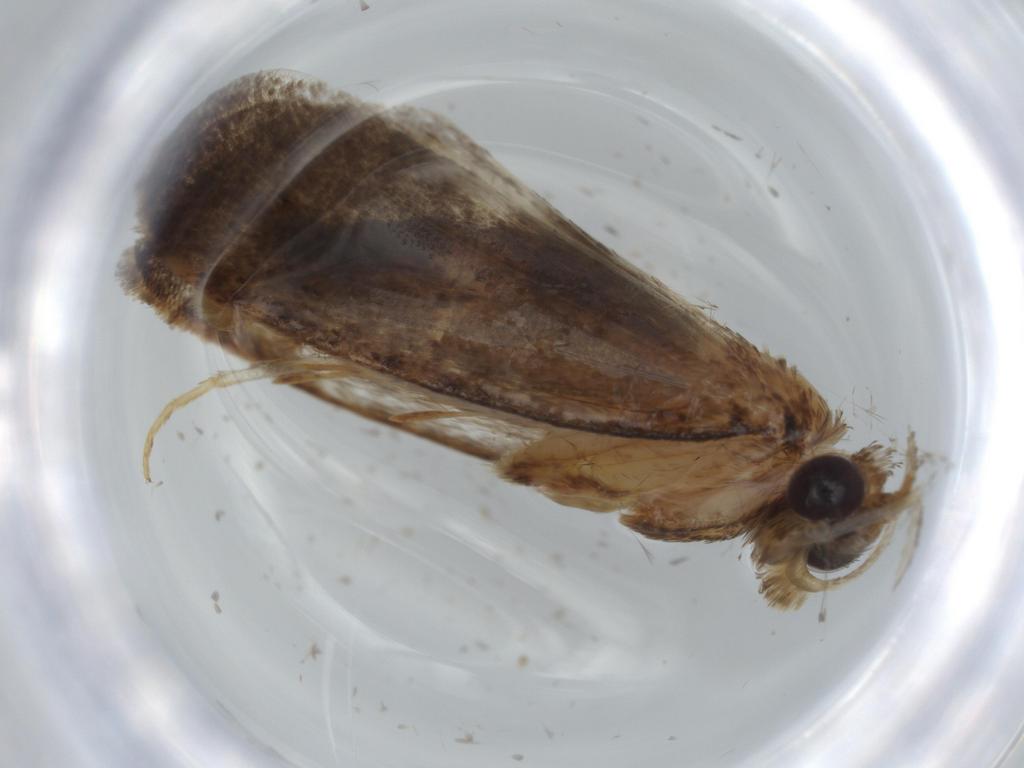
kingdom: Animalia
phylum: Arthropoda
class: Insecta
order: Lepidoptera
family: Tineidae
